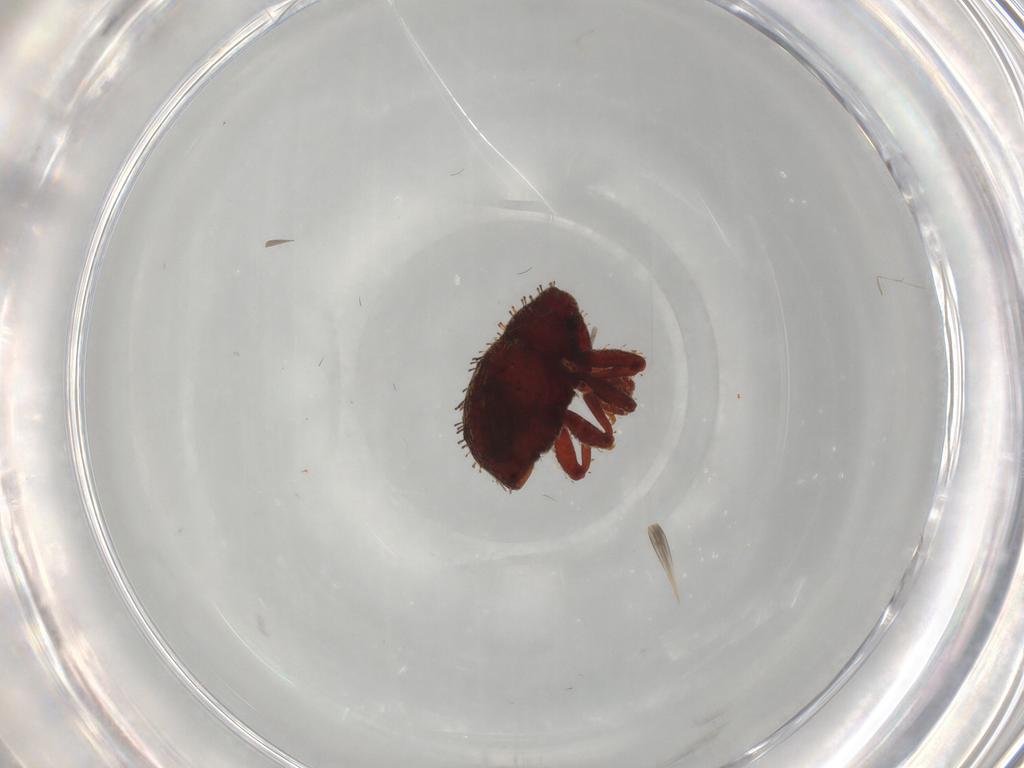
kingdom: Animalia
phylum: Arthropoda
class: Insecta
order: Coleoptera
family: Curculionidae
